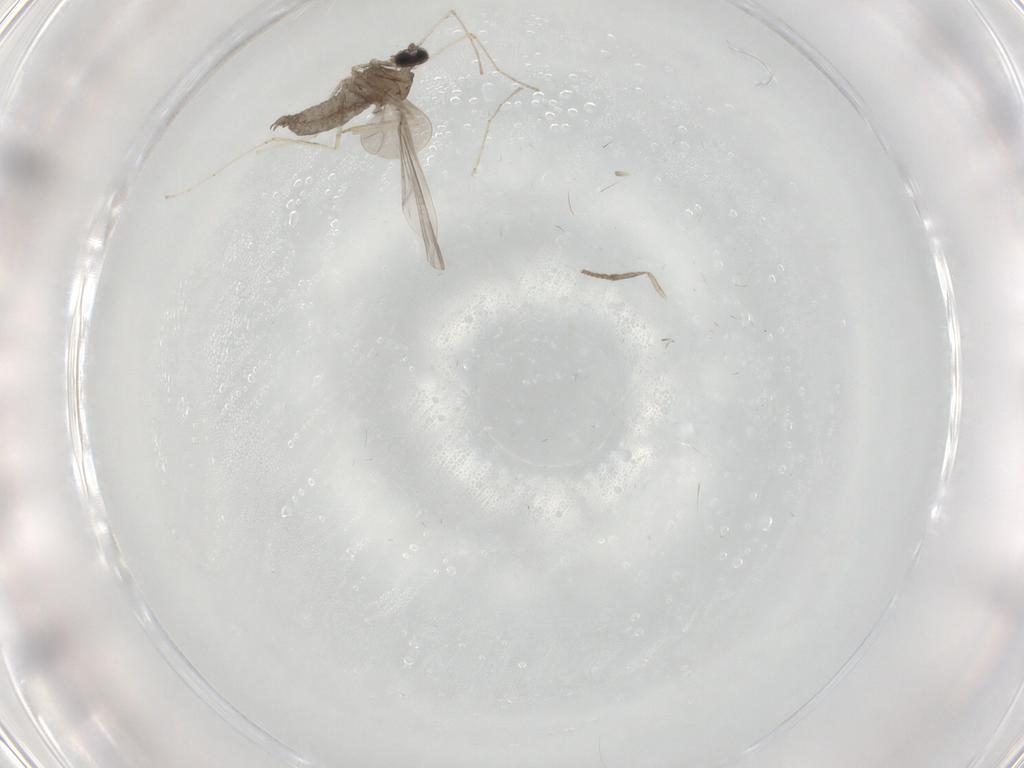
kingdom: Animalia
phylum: Arthropoda
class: Insecta
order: Diptera
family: Psychodidae
